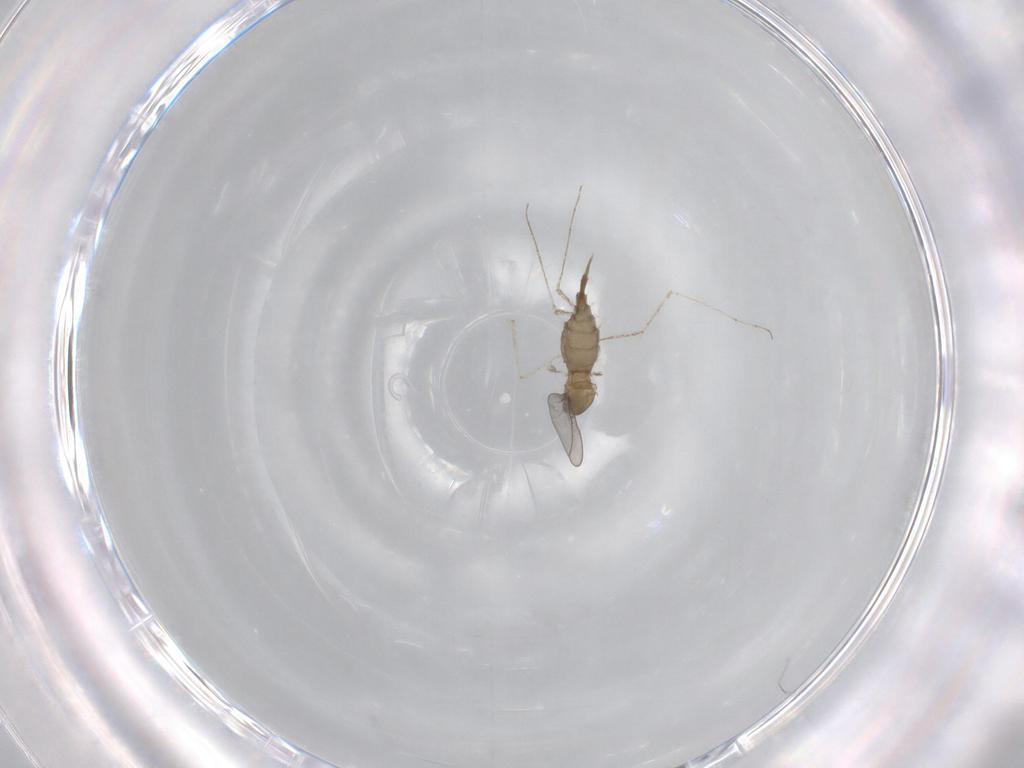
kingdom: Animalia
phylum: Arthropoda
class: Insecta
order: Diptera
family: Cecidomyiidae
